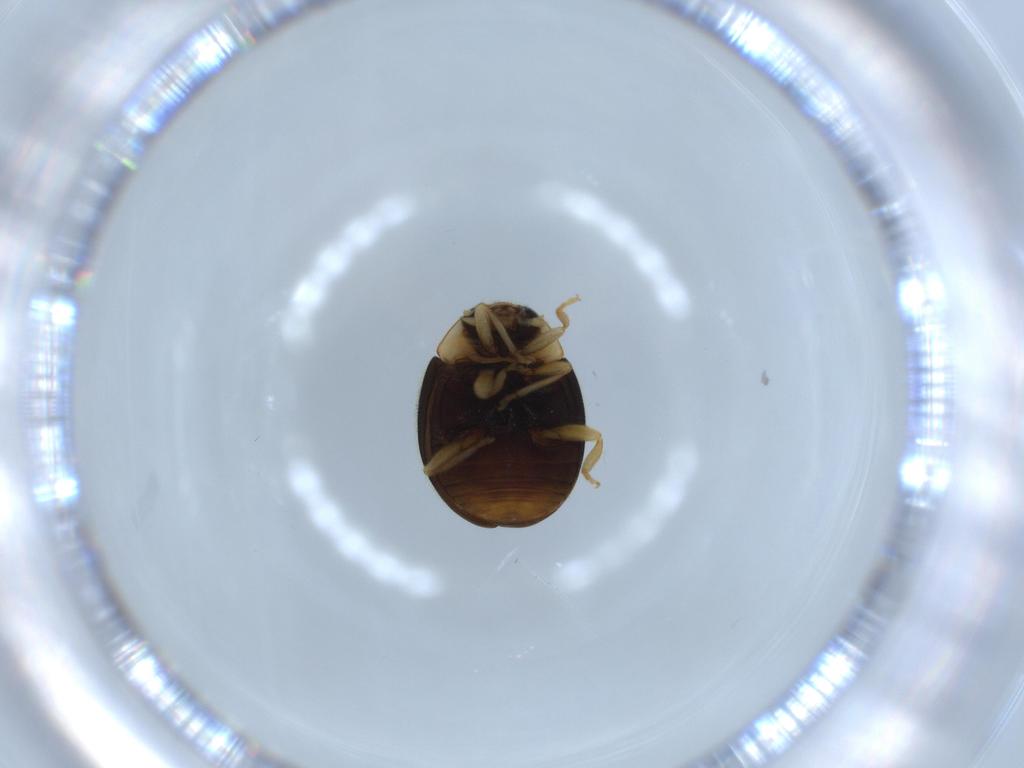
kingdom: Animalia
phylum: Arthropoda
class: Insecta
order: Coleoptera
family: Coccinellidae
